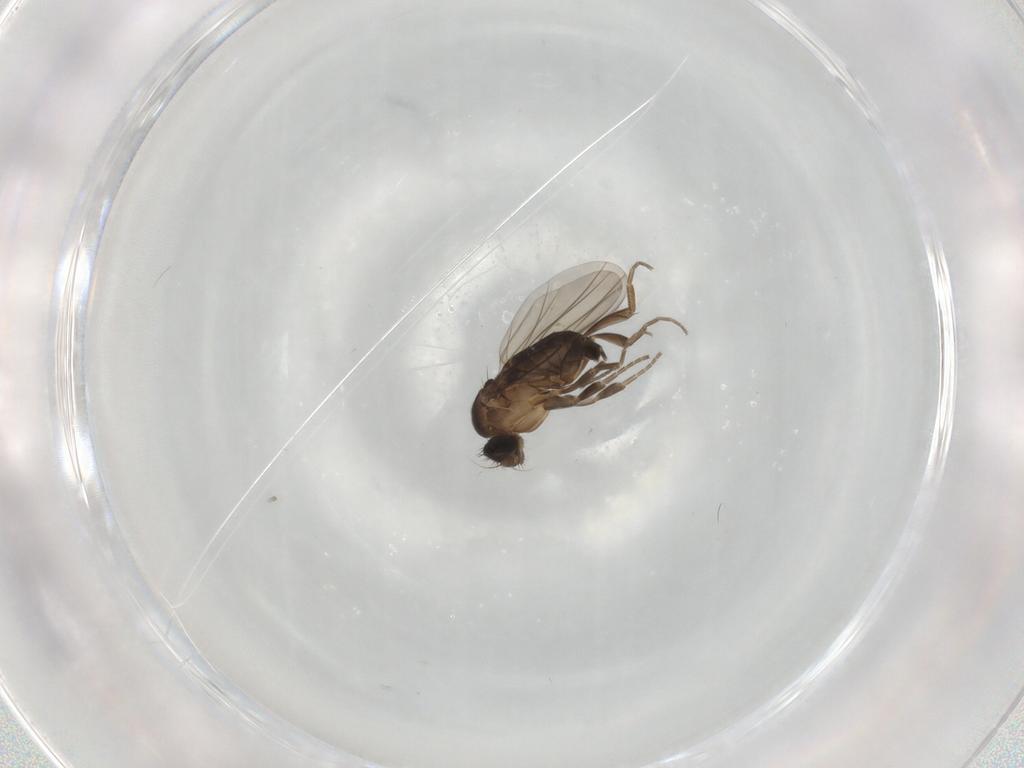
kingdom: Animalia
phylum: Arthropoda
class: Insecta
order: Diptera
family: Phoridae
